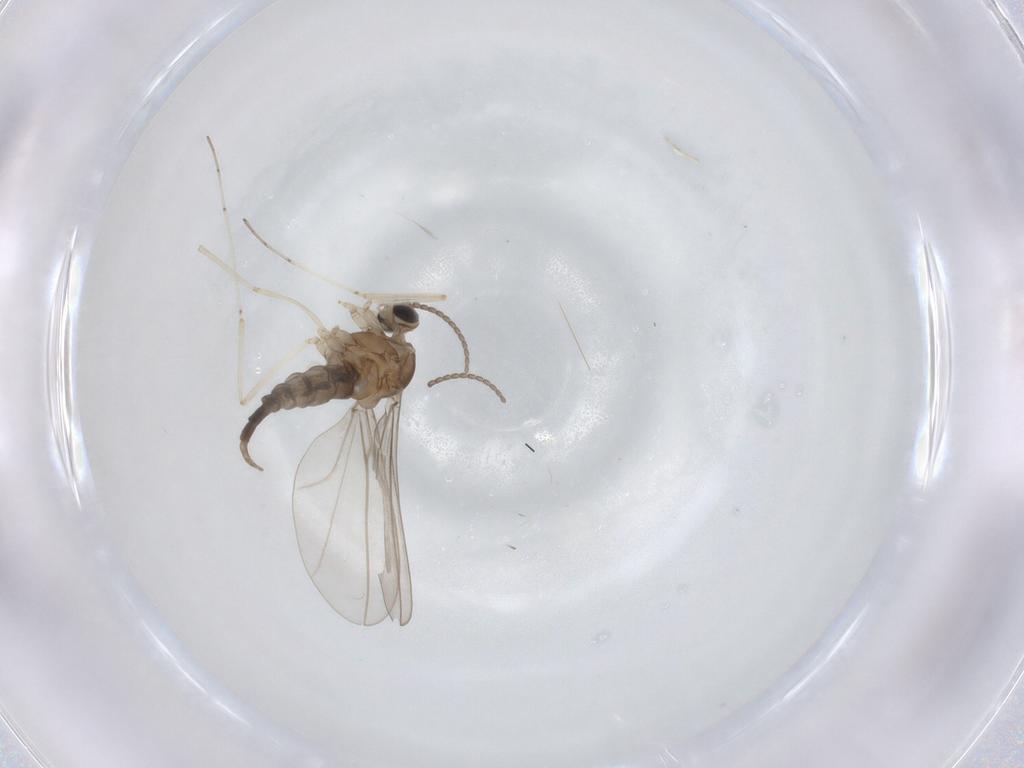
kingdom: Animalia
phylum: Arthropoda
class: Insecta
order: Diptera
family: Cecidomyiidae
